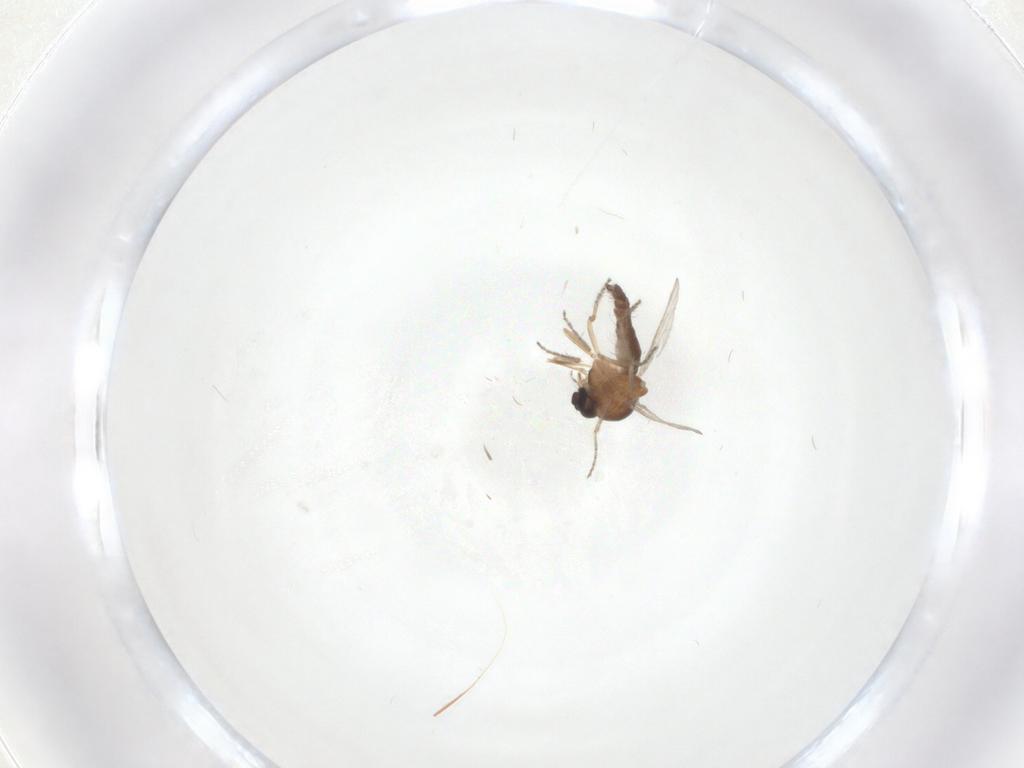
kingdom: Animalia
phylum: Arthropoda
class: Insecta
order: Diptera
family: Ceratopogonidae
